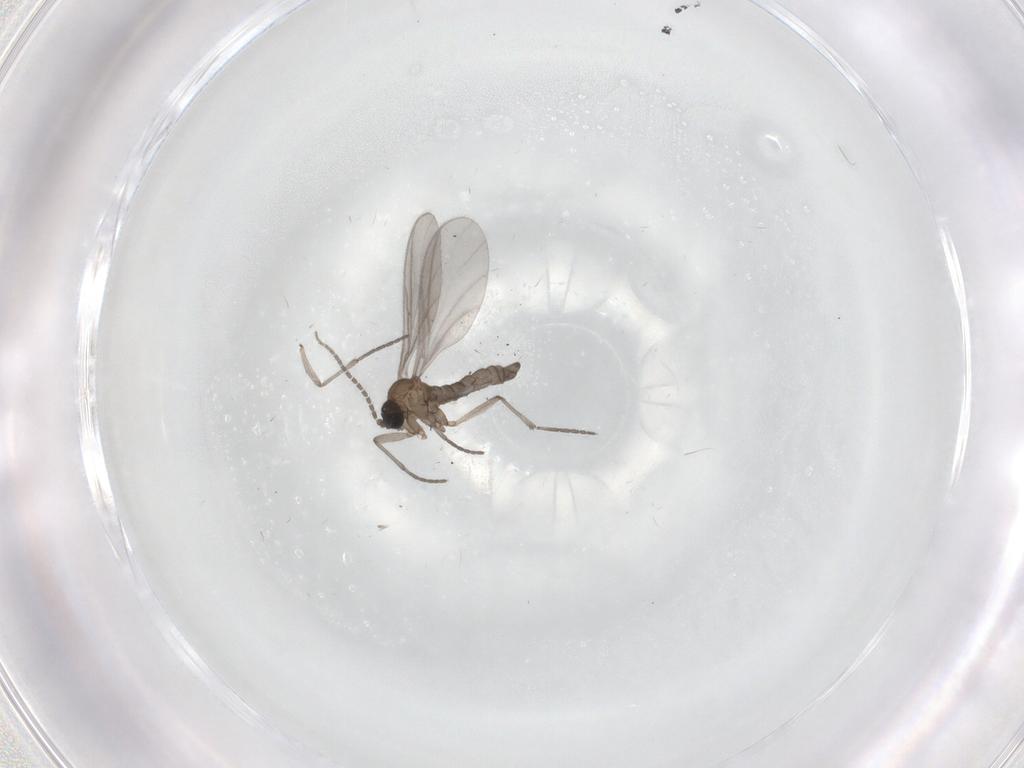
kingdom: Animalia
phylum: Arthropoda
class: Insecta
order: Diptera
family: Sciaridae
